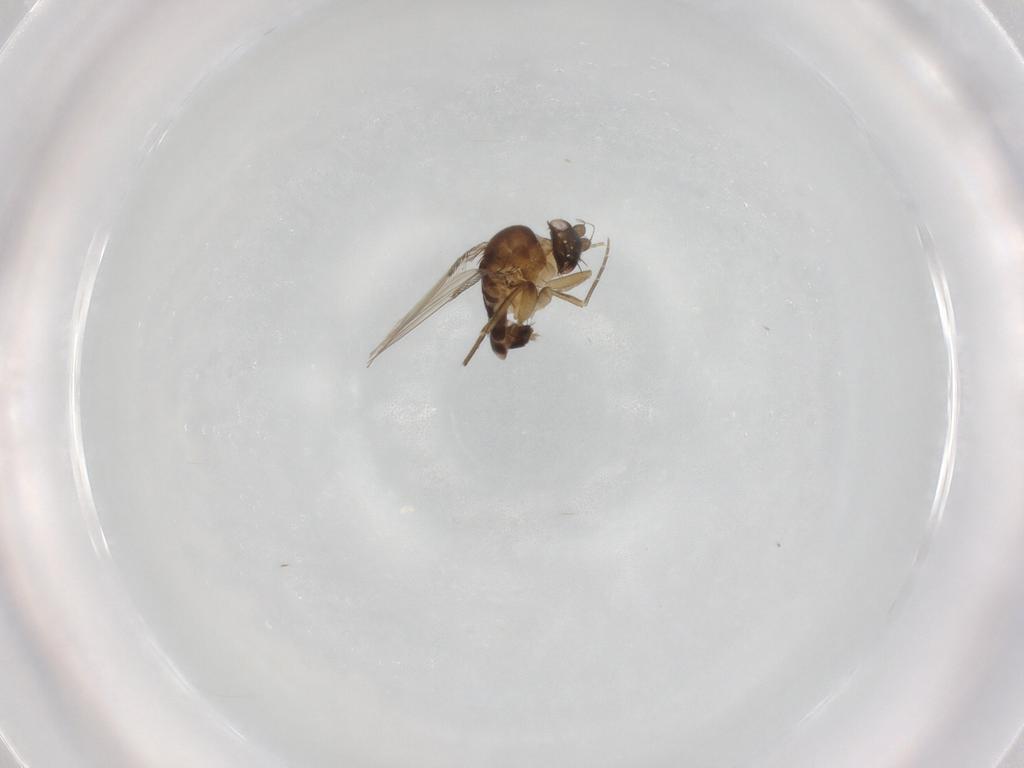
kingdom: Animalia
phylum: Arthropoda
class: Insecta
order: Diptera
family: Phoridae
